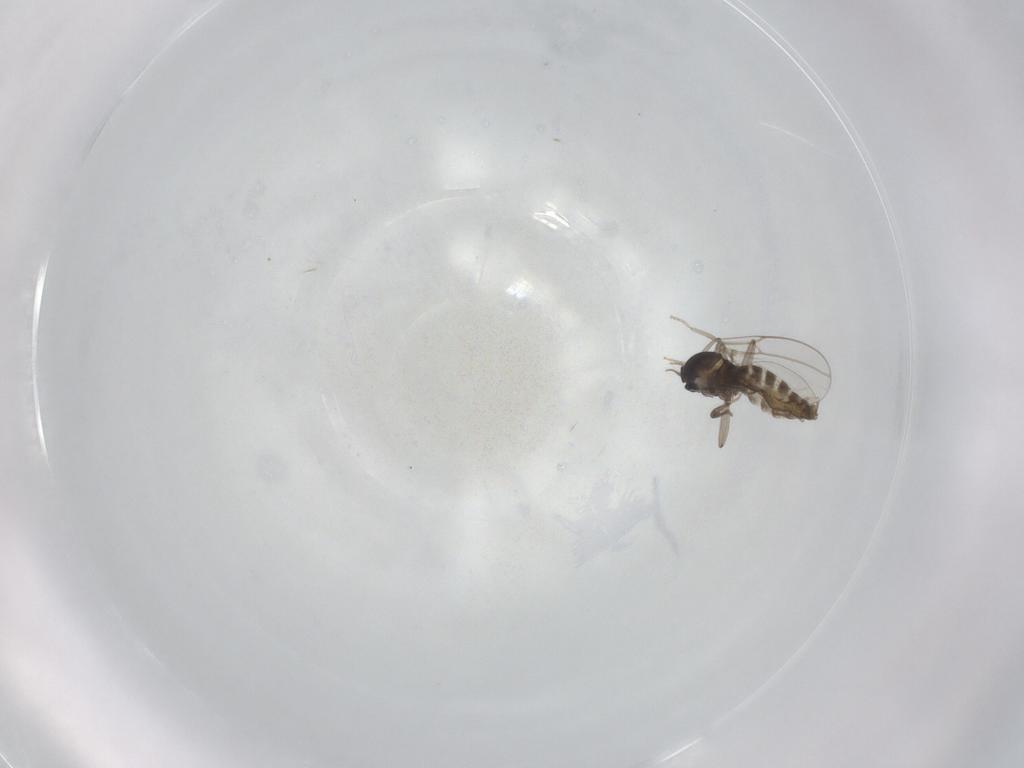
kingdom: Animalia
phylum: Arthropoda
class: Insecta
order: Diptera
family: Cecidomyiidae
